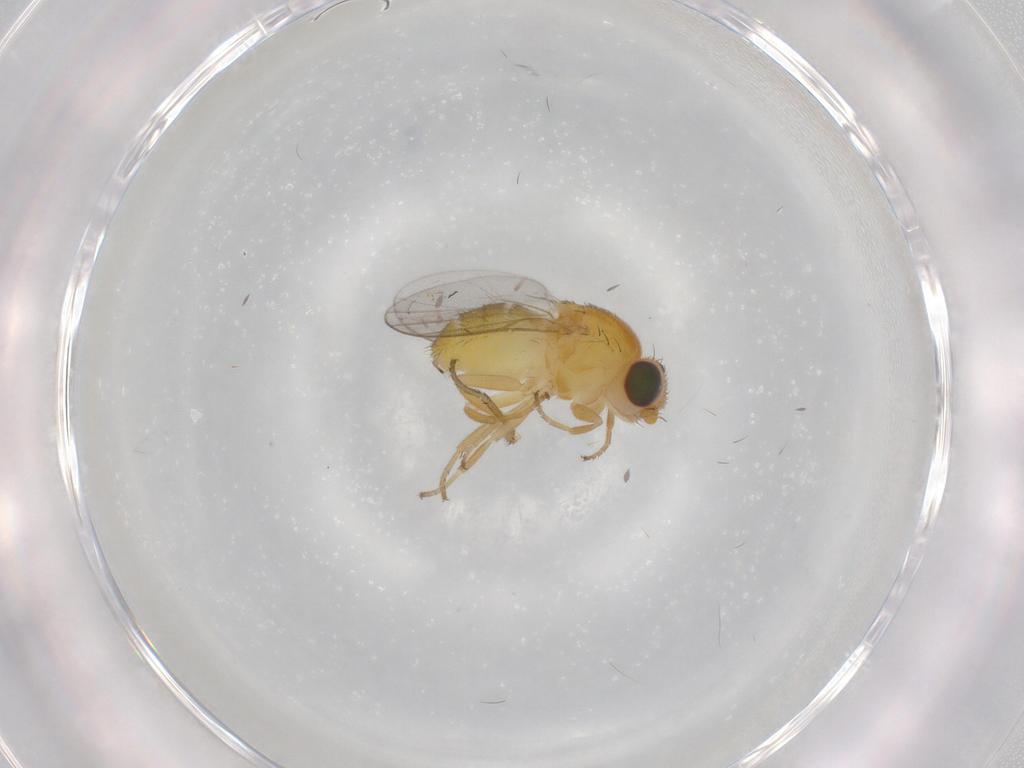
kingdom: Animalia
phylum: Arthropoda
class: Insecta
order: Diptera
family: Chloropidae
